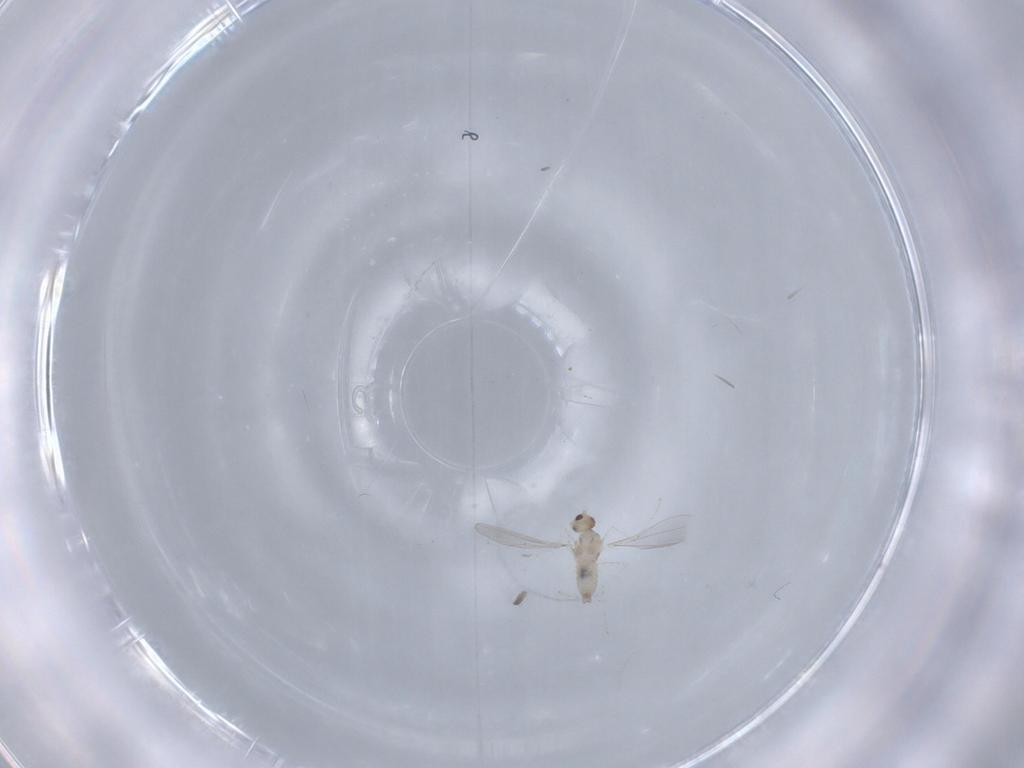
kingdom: Animalia
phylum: Arthropoda
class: Insecta
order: Diptera
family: Cecidomyiidae
